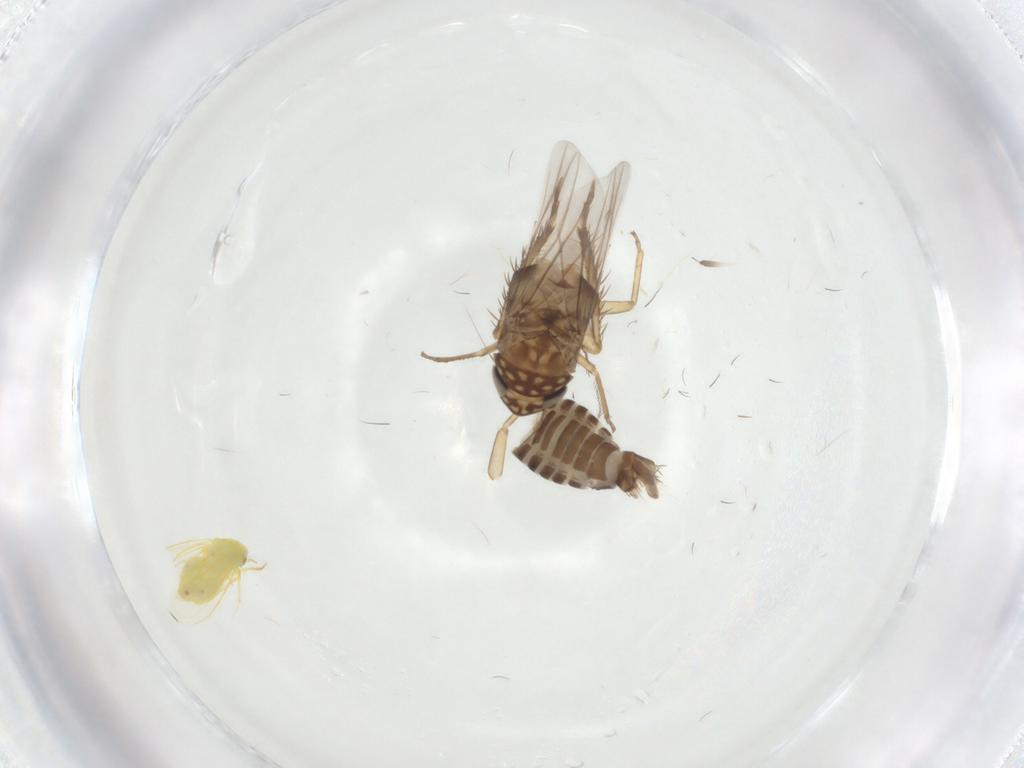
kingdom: Animalia
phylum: Arthropoda
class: Insecta
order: Hemiptera
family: Cicadellidae
